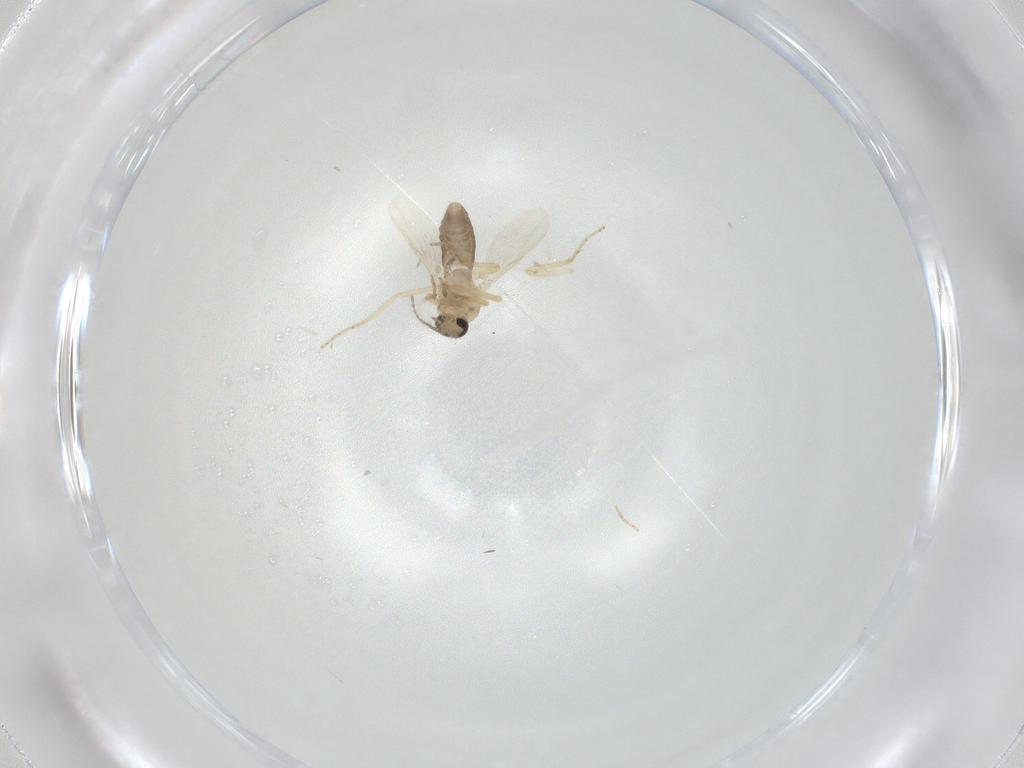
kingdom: Animalia
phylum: Arthropoda
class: Insecta
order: Diptera
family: Ceratopogonidae
